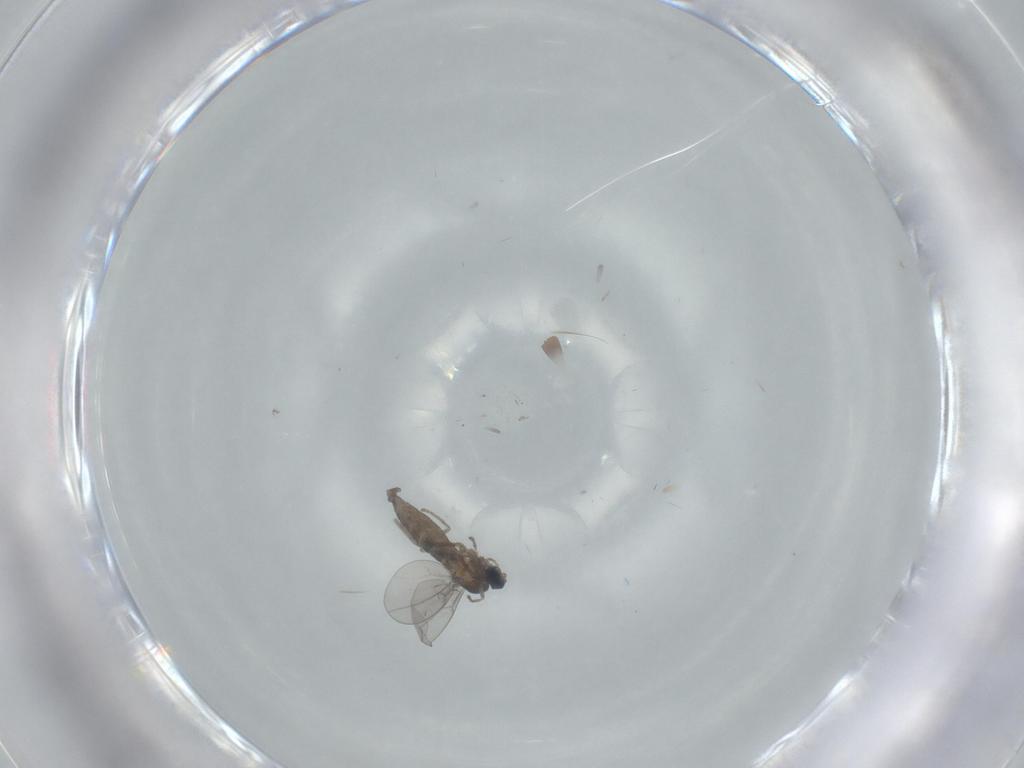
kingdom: Animalia
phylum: Arthropoda
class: Insecta
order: Diptera
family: Cecidomyiidae
